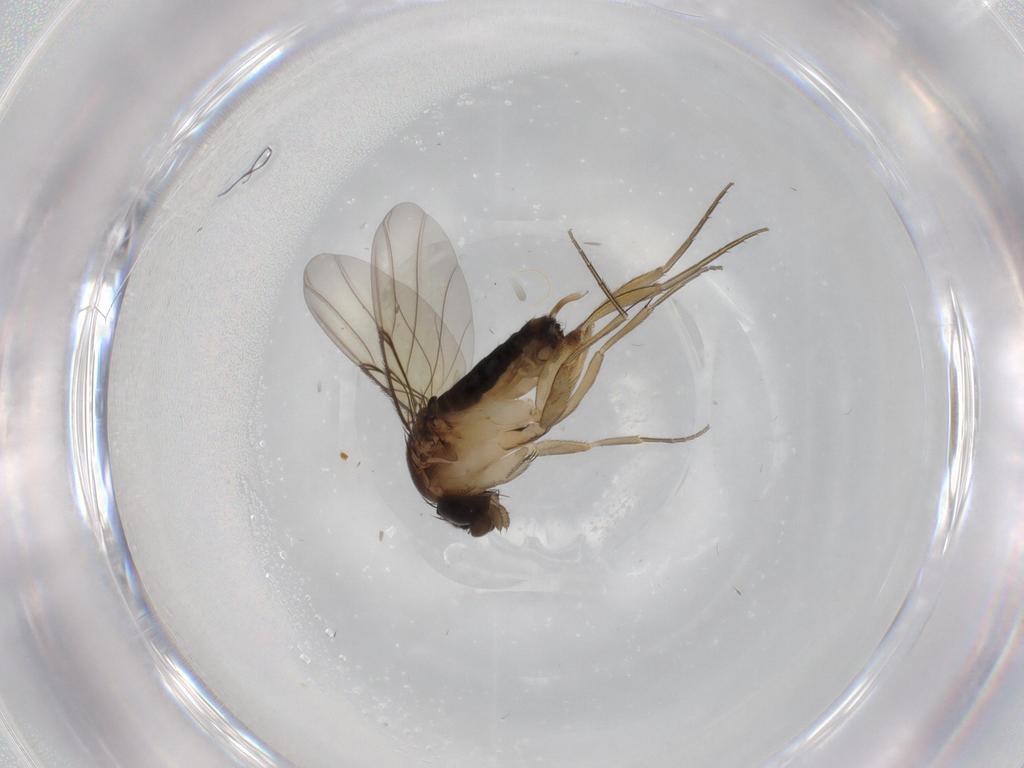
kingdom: Animalia
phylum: Arthropoda
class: Insecta
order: Diptera
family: Phoridae
